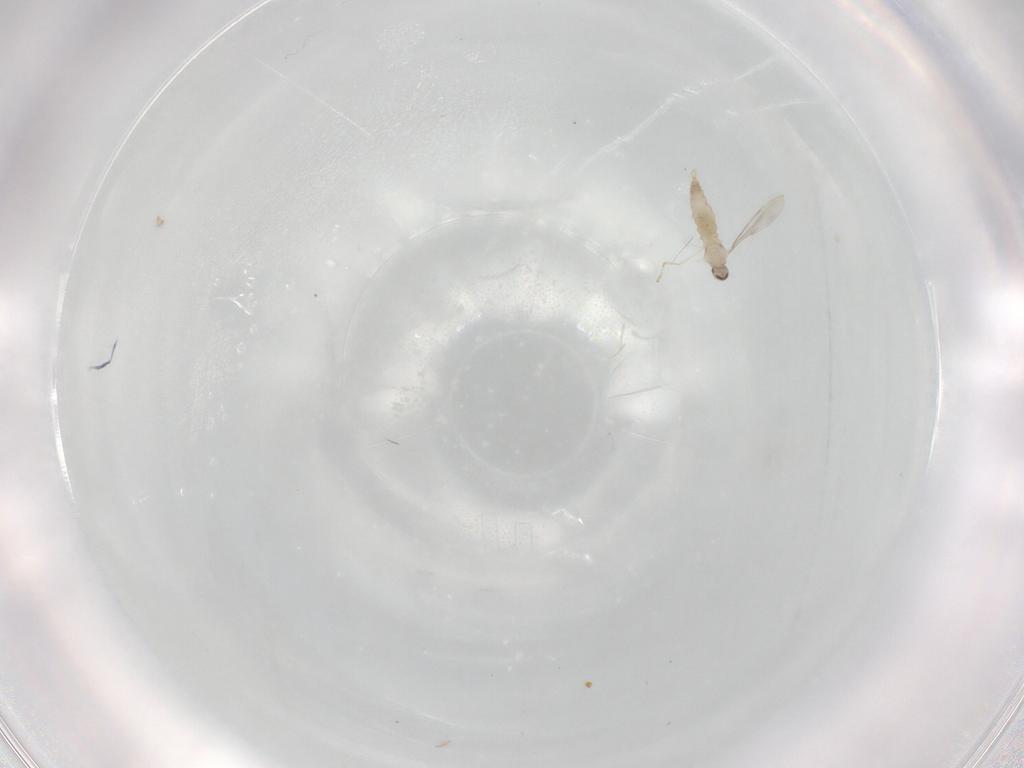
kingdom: Animalia
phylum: Arthropoda
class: Insecta
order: Diptera
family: Cecidomyiidae
